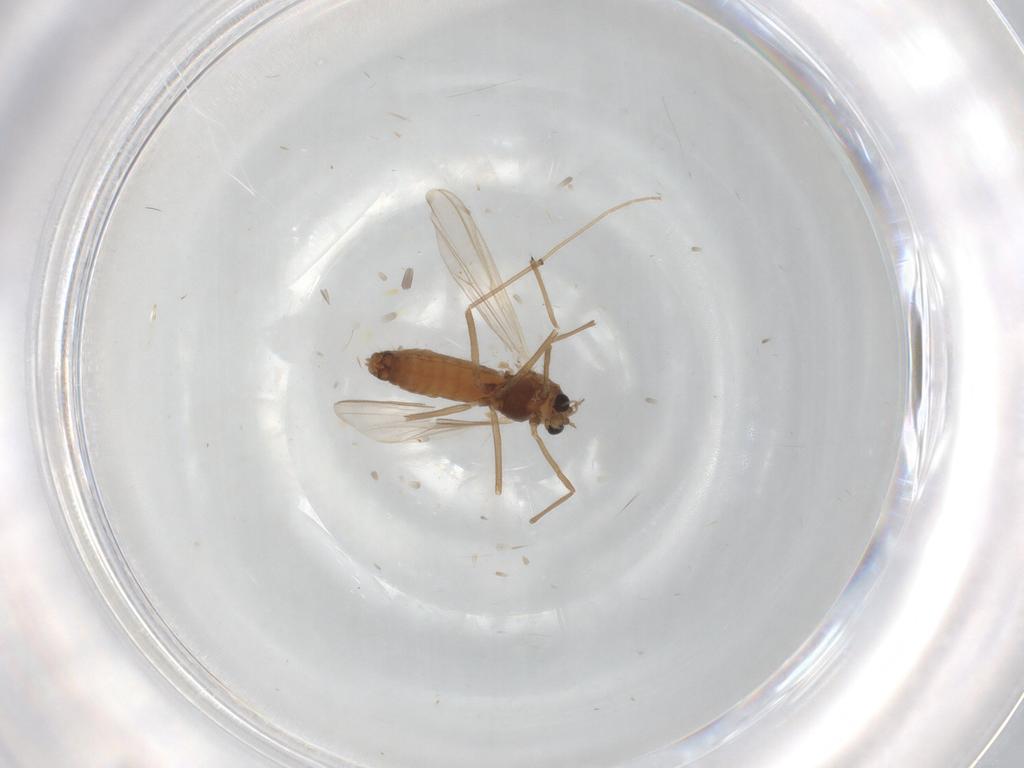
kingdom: Animalia
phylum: Arthropoda
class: Insecta
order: Diptera
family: Chironomidae
